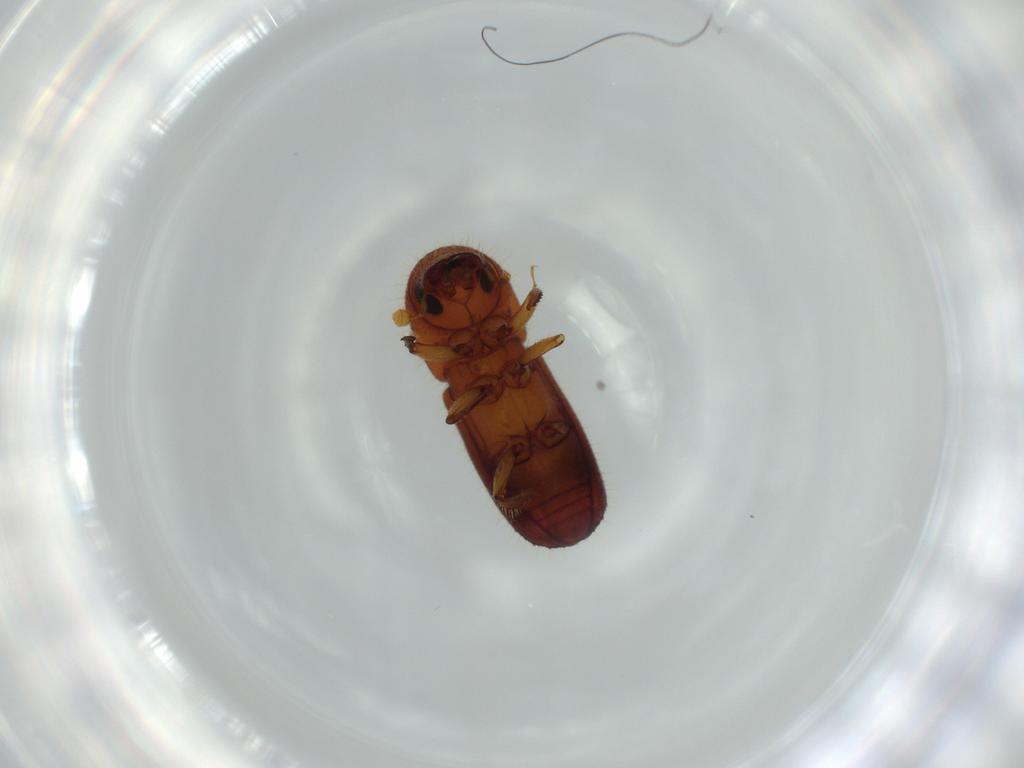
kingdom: Animalia
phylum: Arthropoda
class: Insecta
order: Coleoptera
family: Curculionidae
